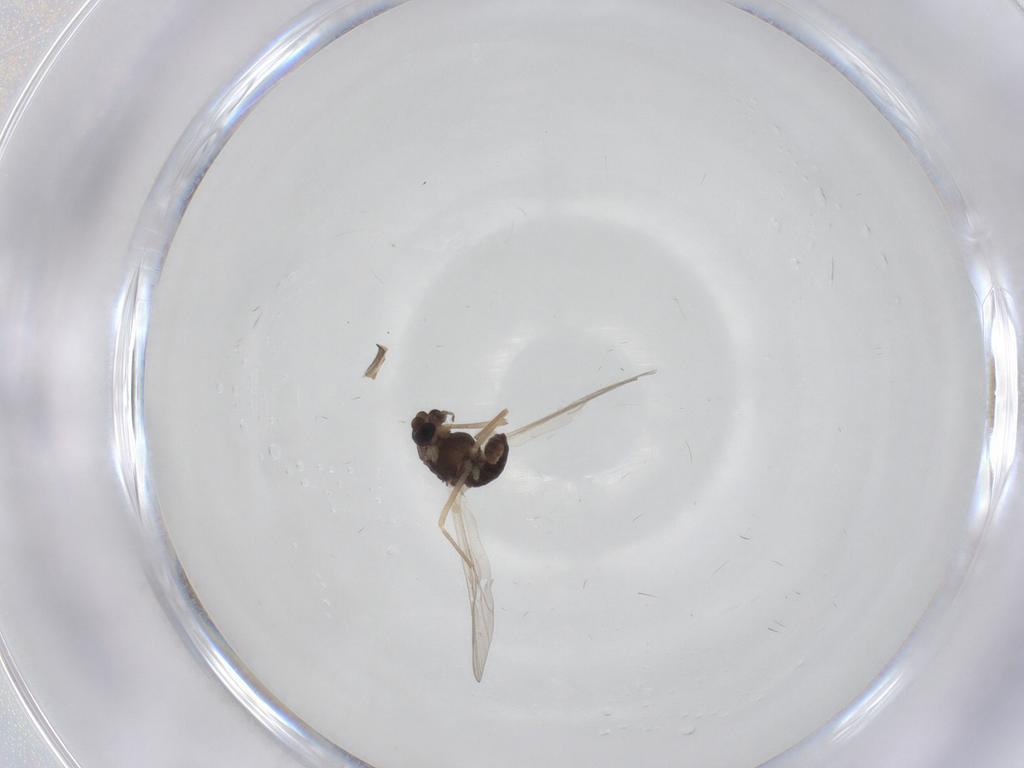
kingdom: Animalia
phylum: Arthropoda
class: Insecta
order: Diptera
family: Chironomidae
